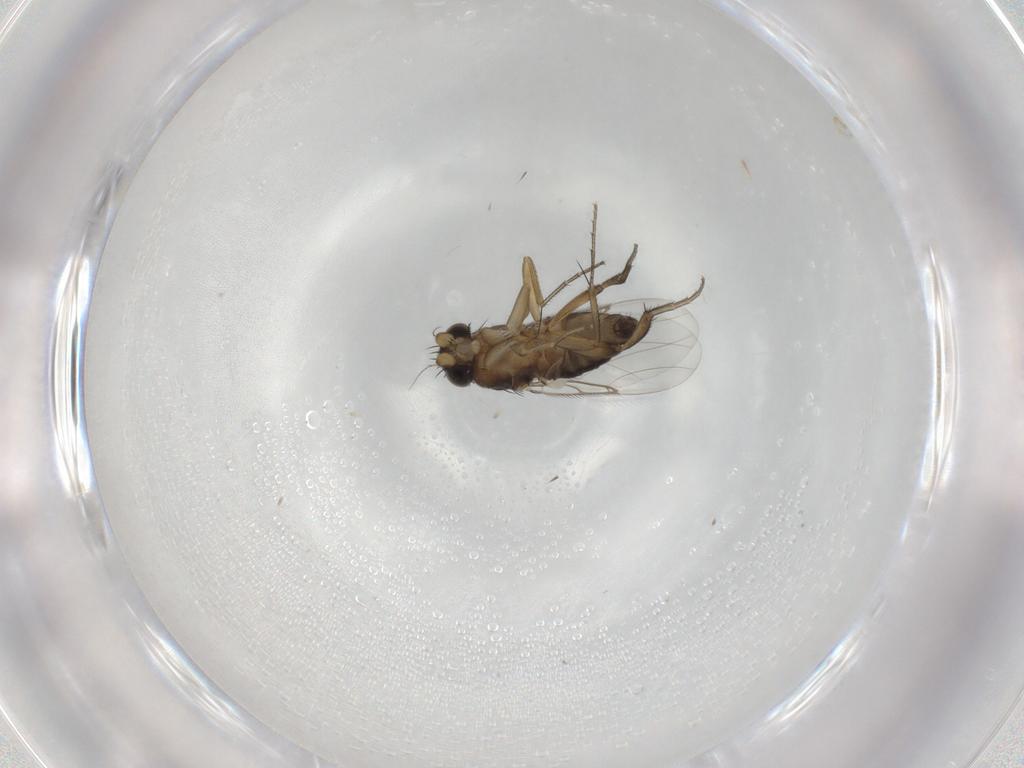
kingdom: Animalia
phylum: Arthropoda
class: Insecta
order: Diptera
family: Phoridae
